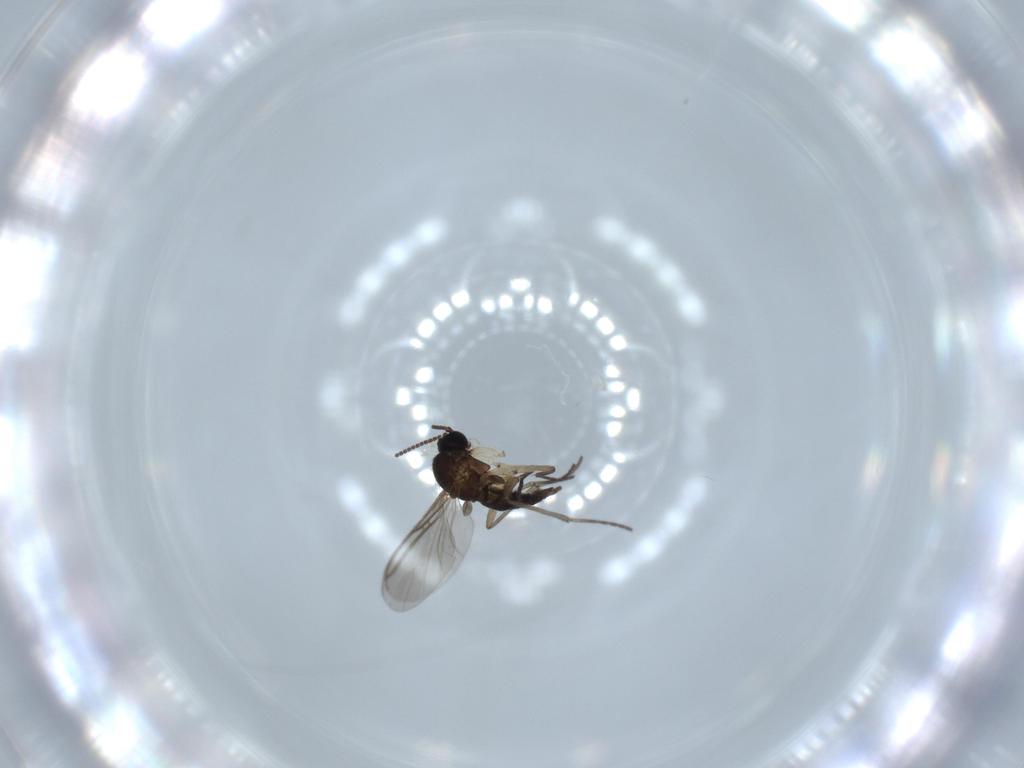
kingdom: Animalia
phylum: Arthropoda
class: Insecta
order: Diptera
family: Sciaridae
